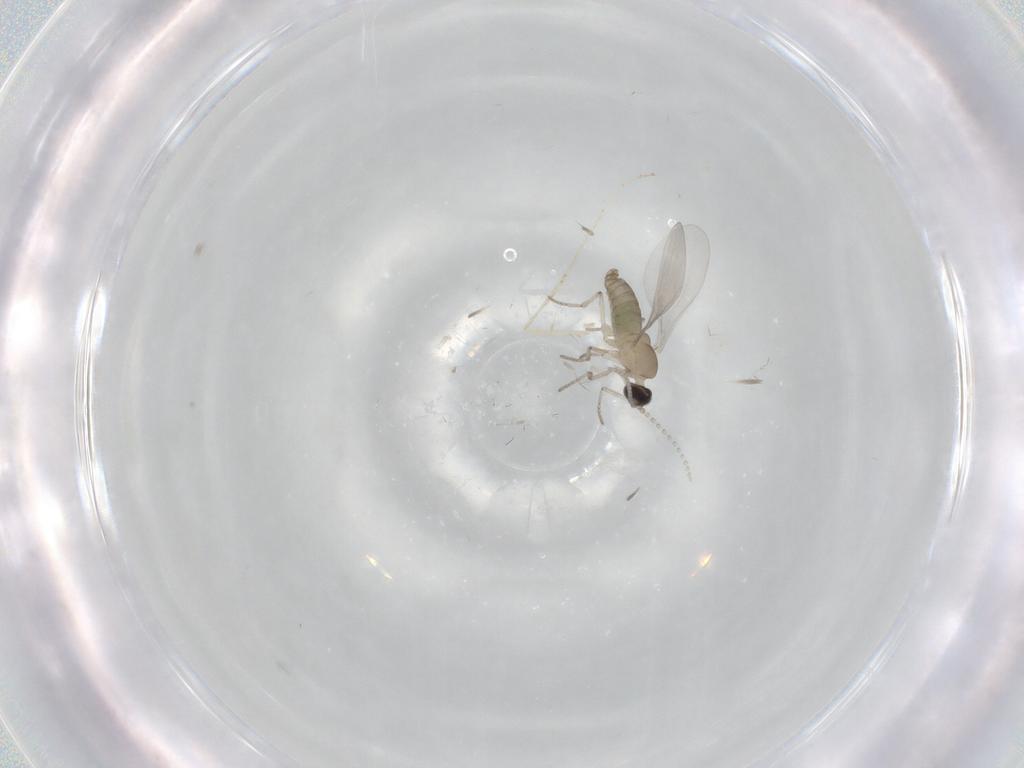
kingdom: Animalia
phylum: Arthropoda
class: Insecta
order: Diptera
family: Cecidomyiidae
